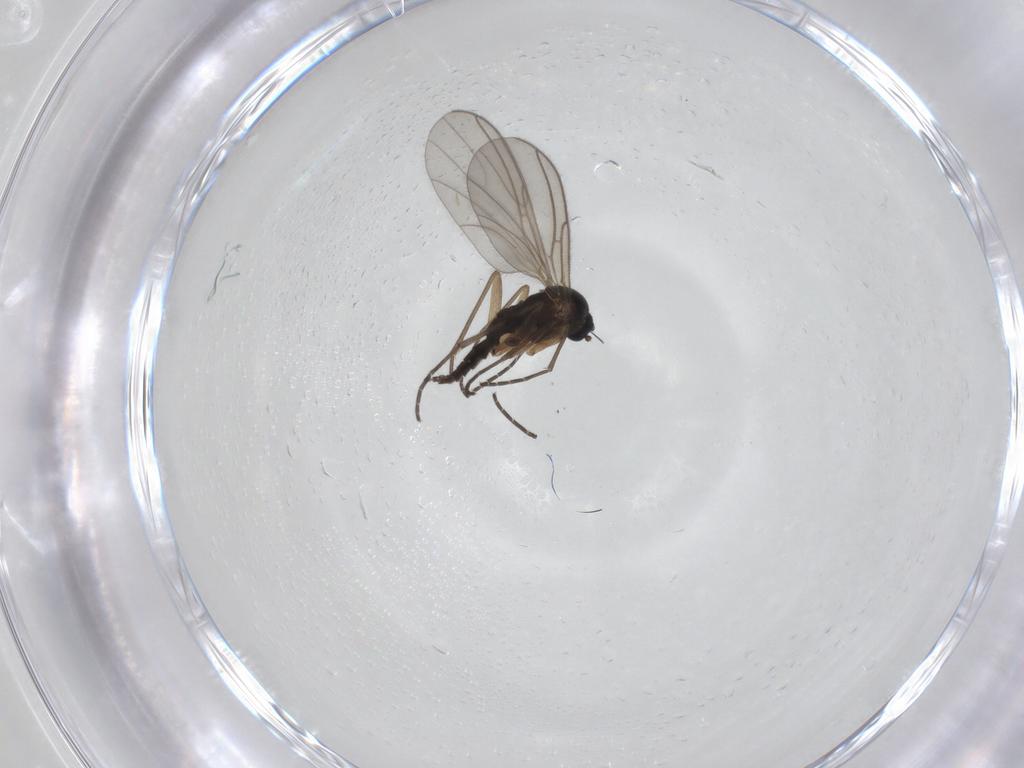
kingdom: Animalia
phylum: Arthropoda
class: Insecta
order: Diptera
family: Sciaridae
